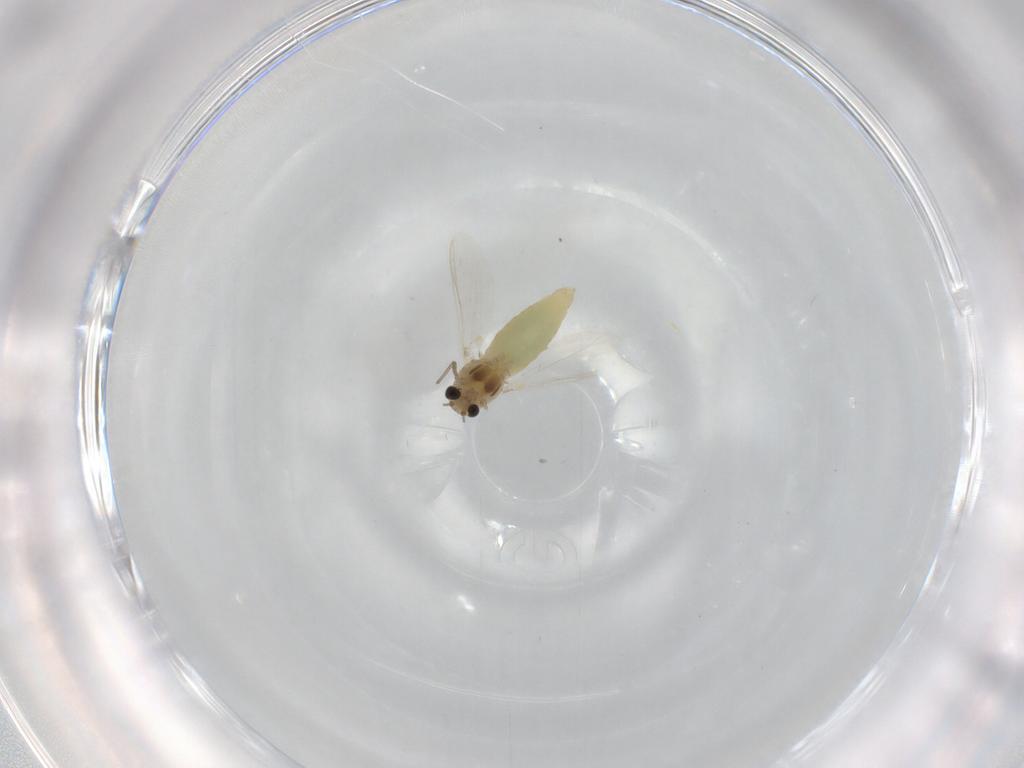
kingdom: Animalia
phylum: Arthropoda
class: Insecta
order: Diptera
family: Chironomidae
